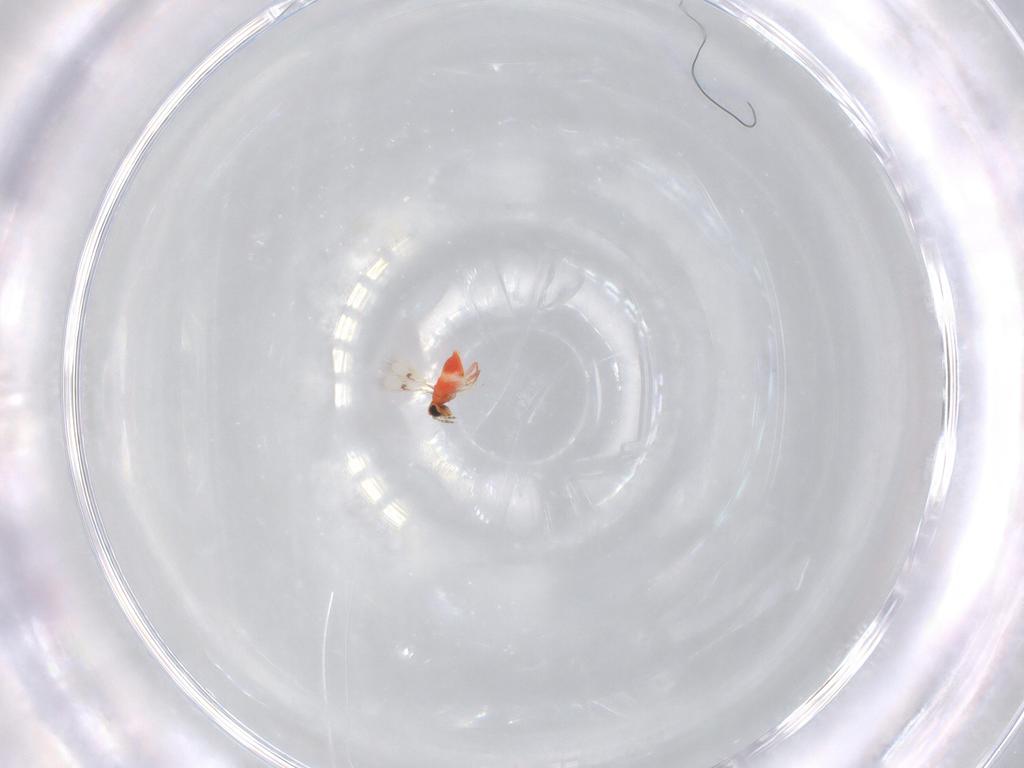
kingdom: Animalia
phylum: Arthropoda
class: Insecta
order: Hymenoptera
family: Trichogrammatidae
